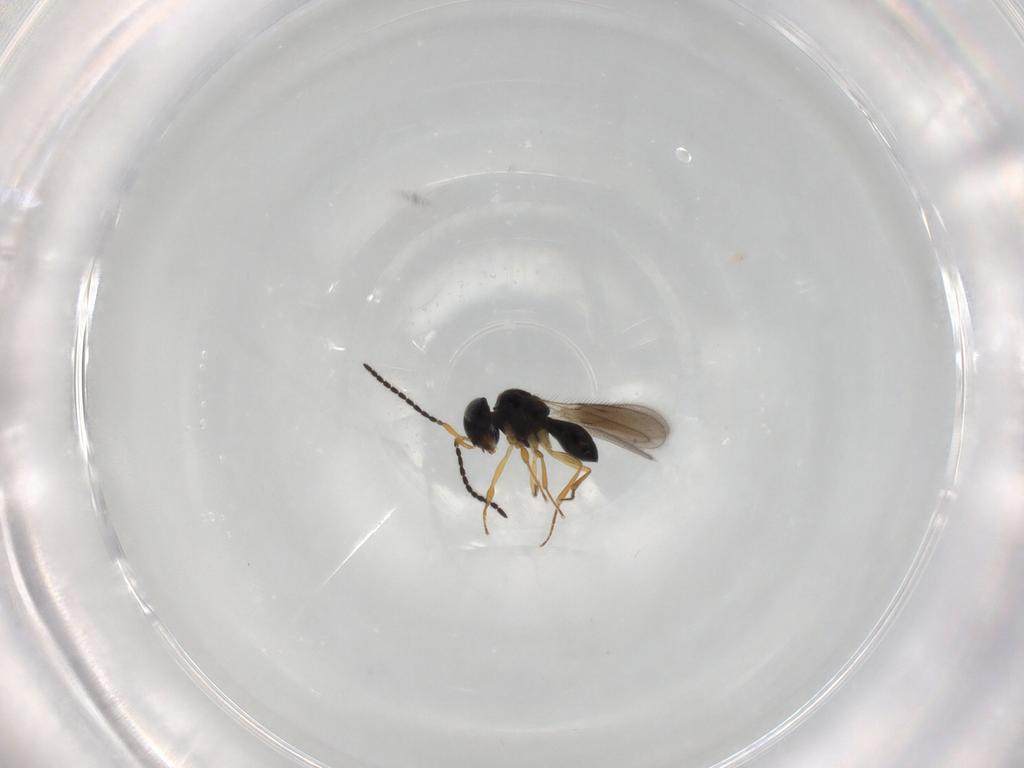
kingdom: Animalia
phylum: Arthropoda
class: Insecta
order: Hymenoptera
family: Scelionidae
